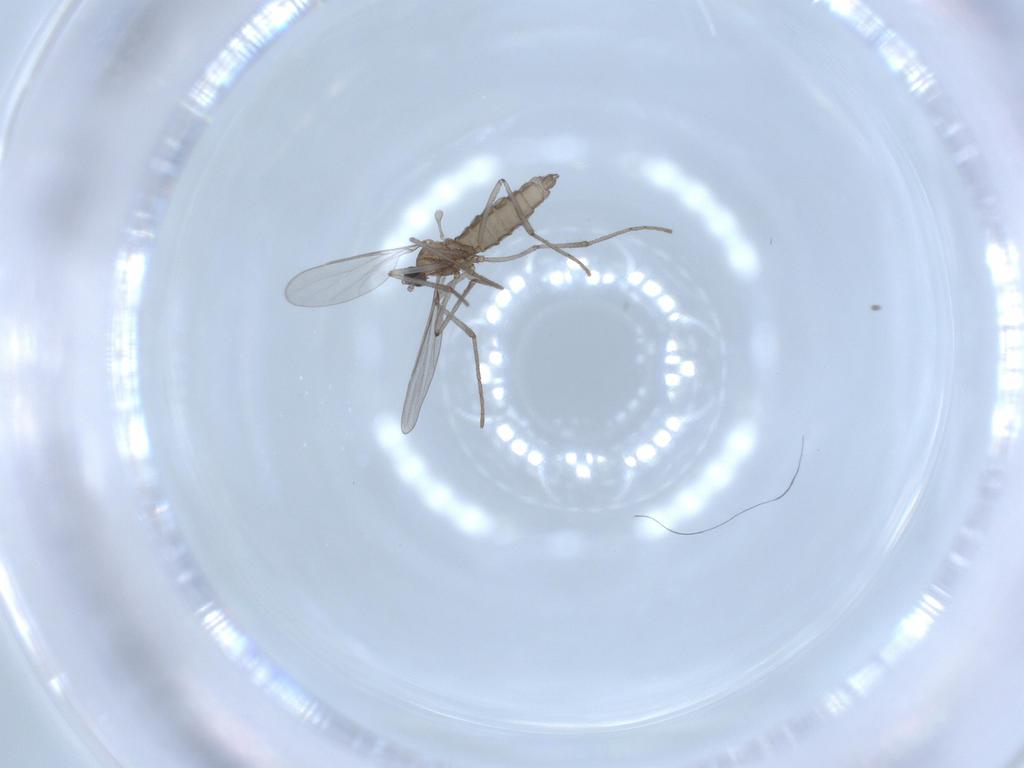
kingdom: Animalia
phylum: Arthropoda
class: Insecta
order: Diptera
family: Cecidomyiidae
